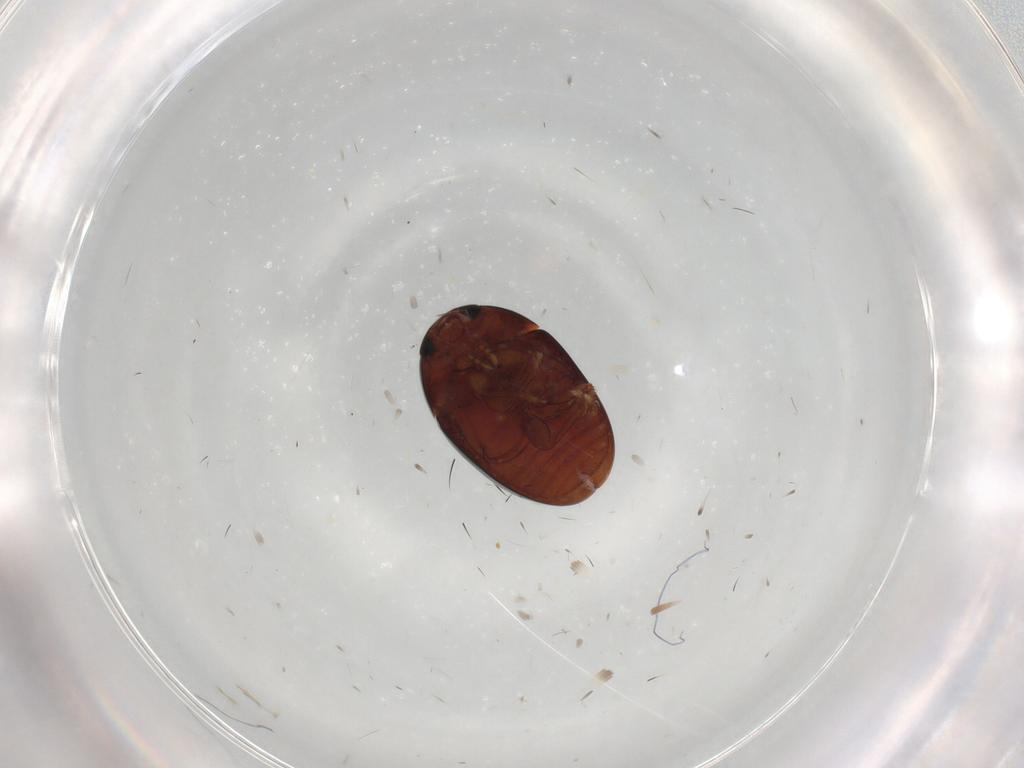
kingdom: Animalia
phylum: Arthropoda
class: Insecta
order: Coleoptera
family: Phalacridae
